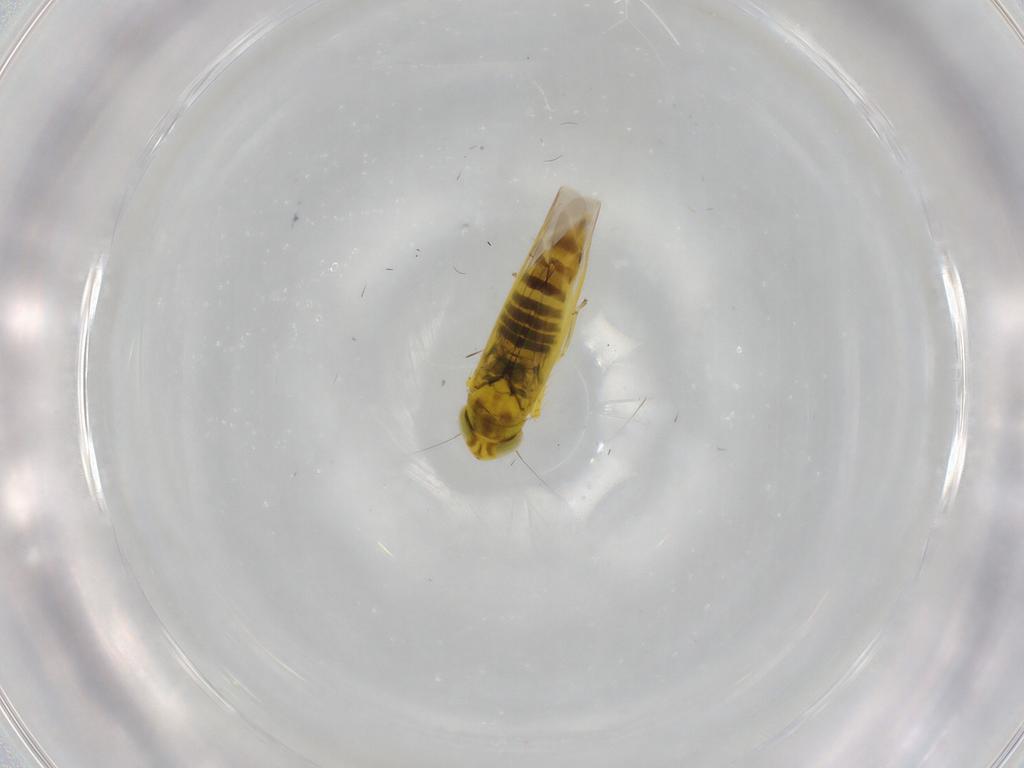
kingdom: Animalia
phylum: Arthropoda
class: Insecta
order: Hemiptera
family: Cicadellidae
